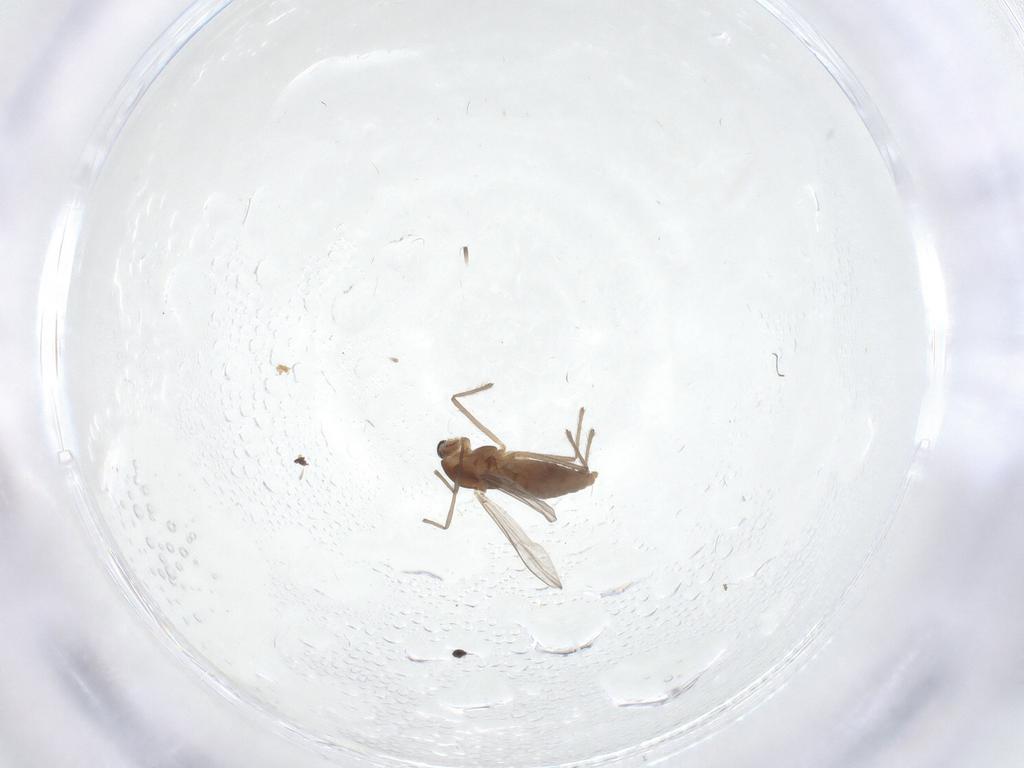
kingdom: Animalia
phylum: Arthropoda
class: Insecta
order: Diptera
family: Chironomidae
